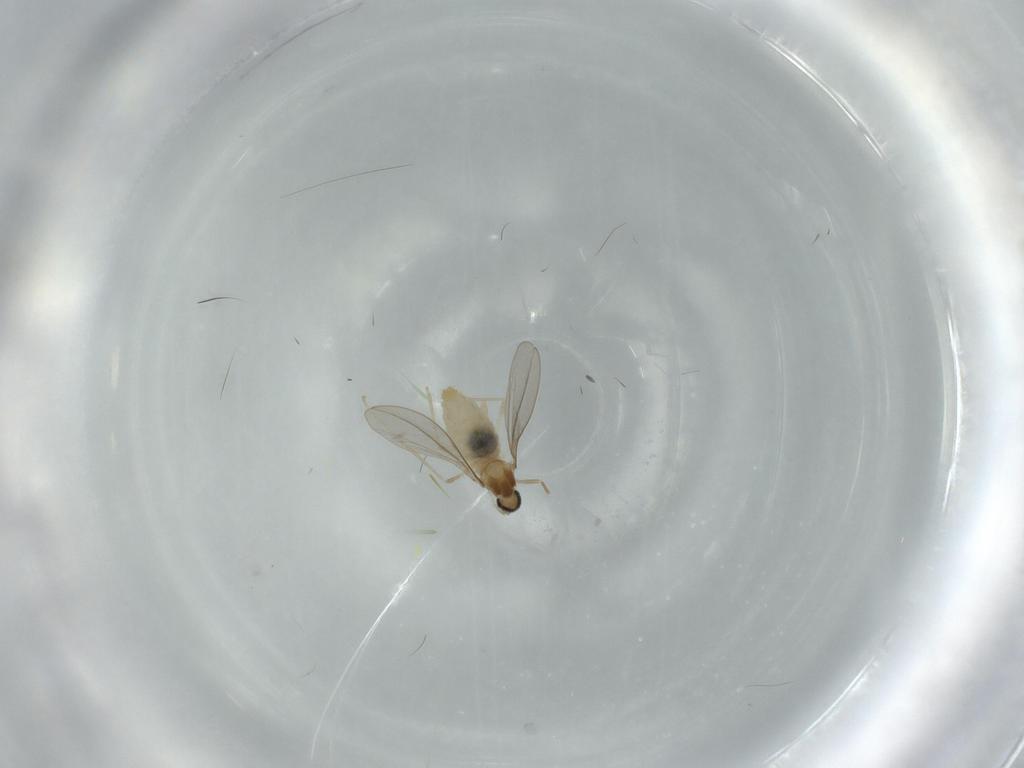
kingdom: Animalia
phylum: Arthropoda
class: Insecta
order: Diptera
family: Cecidomyiidae
